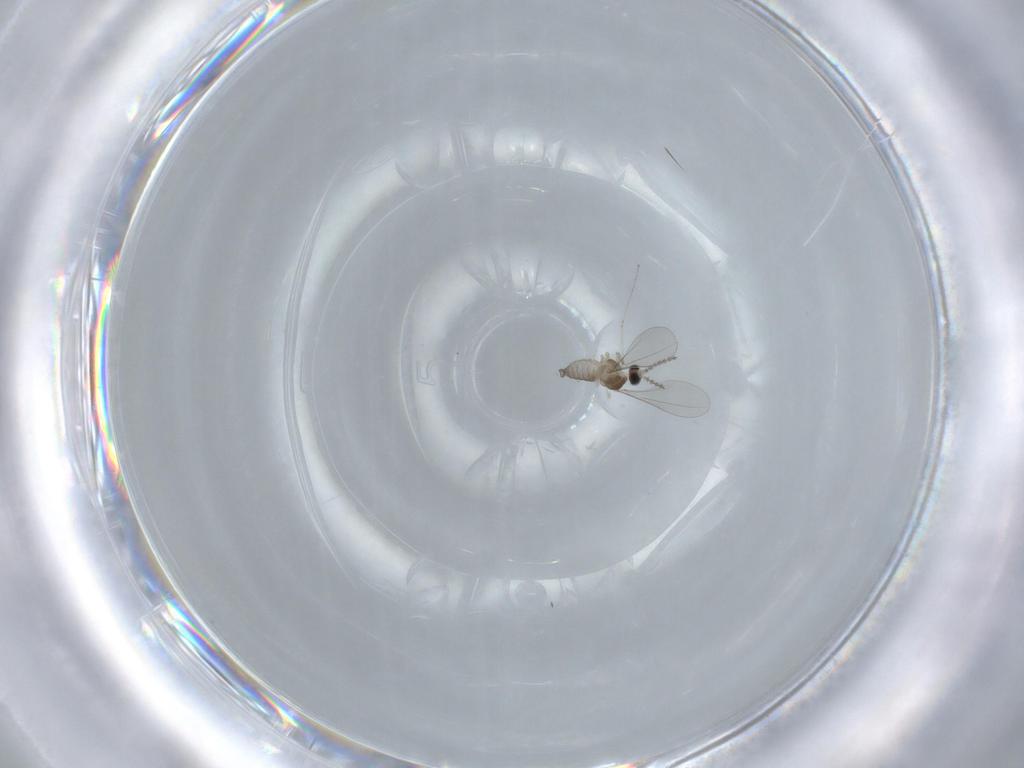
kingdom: Animalia
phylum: Arthropoda
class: Insecta
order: Diptera
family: Cecidomyiidae
